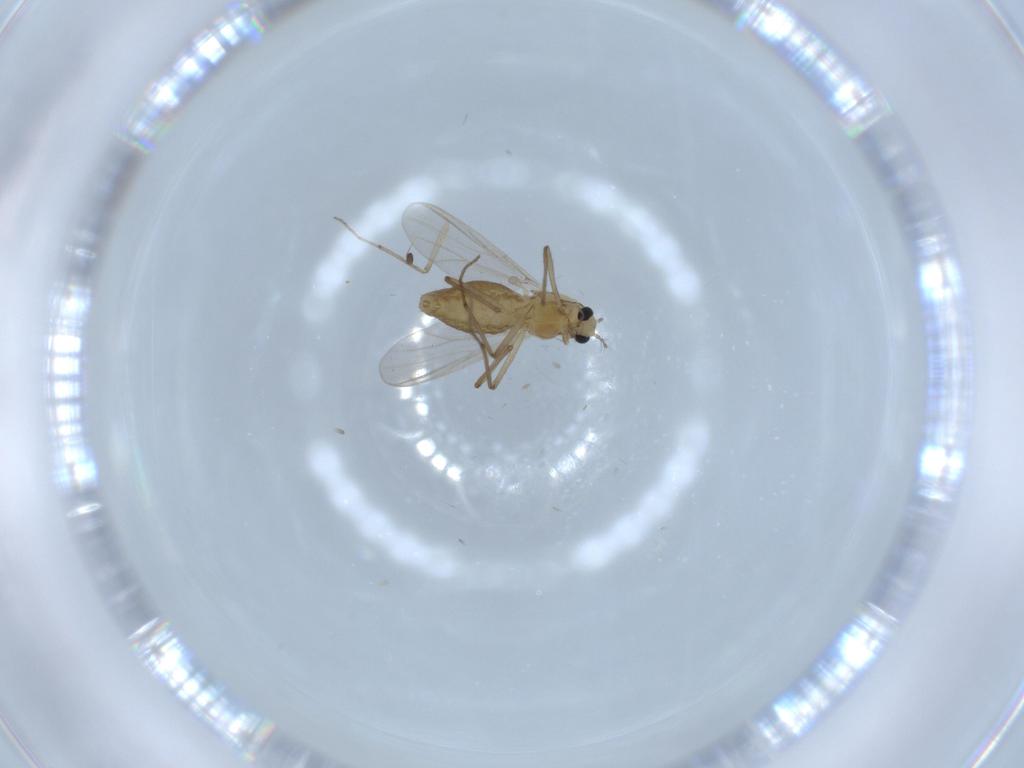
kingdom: Animalia
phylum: Arthropoda
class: Insecta
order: Diptera
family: Chironomidae
